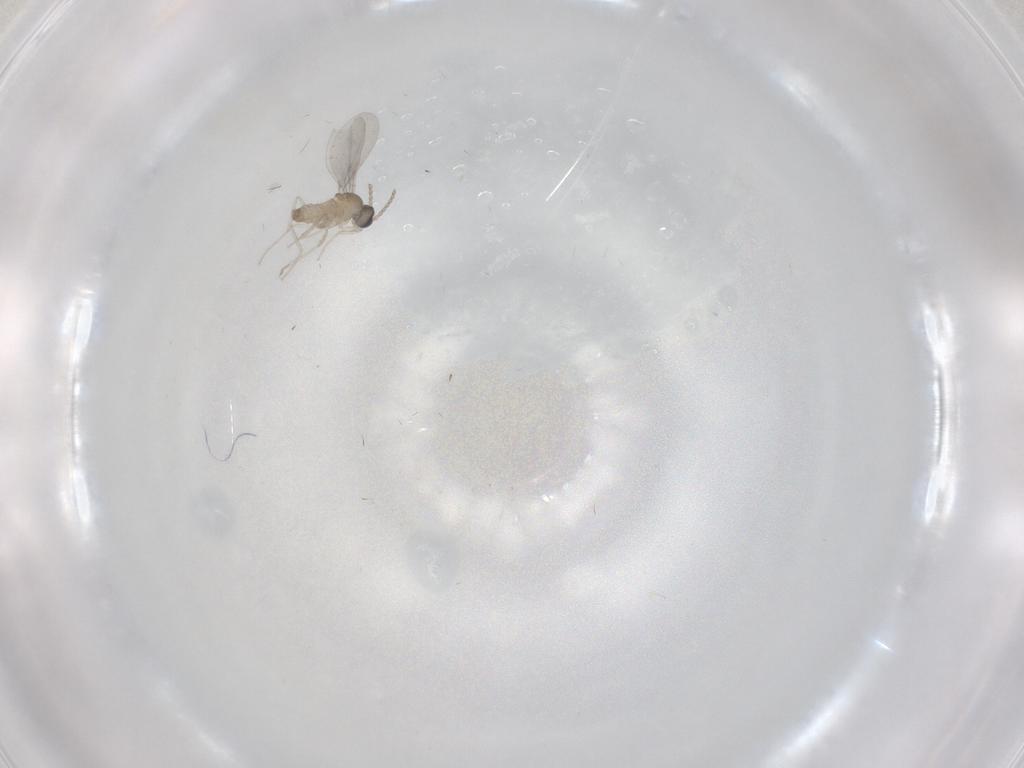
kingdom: Animalia
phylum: Arthropoda
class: Insecta
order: Diptera
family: Cecidomyiidae
